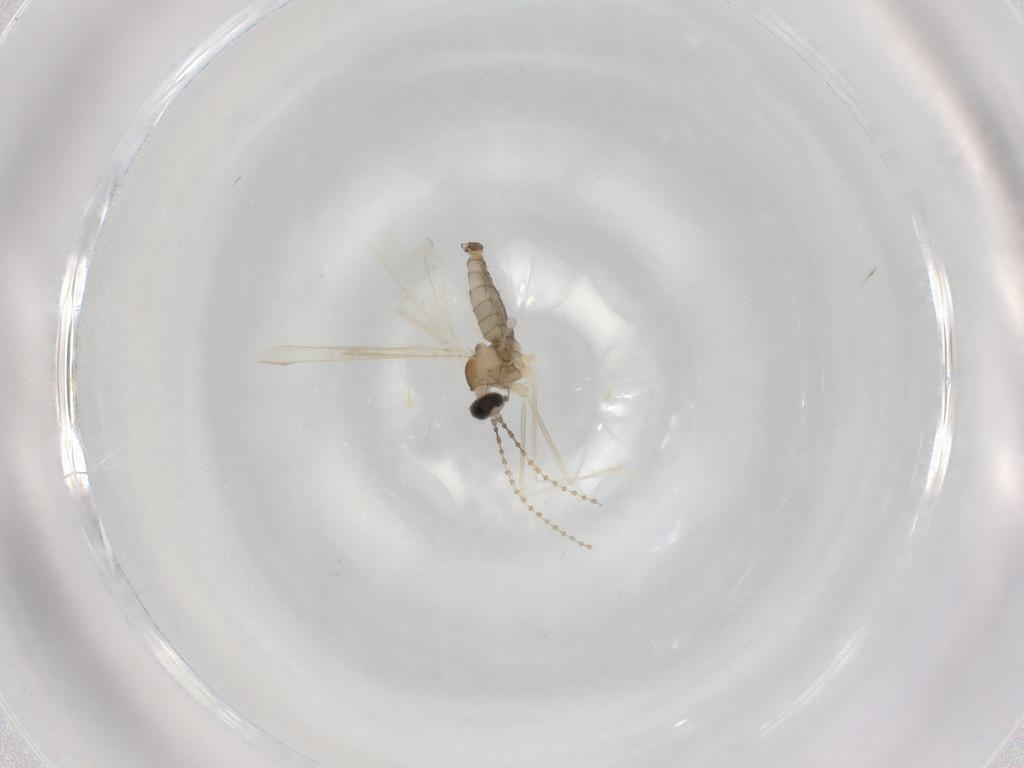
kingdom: Animalia
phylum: Arthropoda
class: Insecta
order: Diptera
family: Cecidomyiidae
